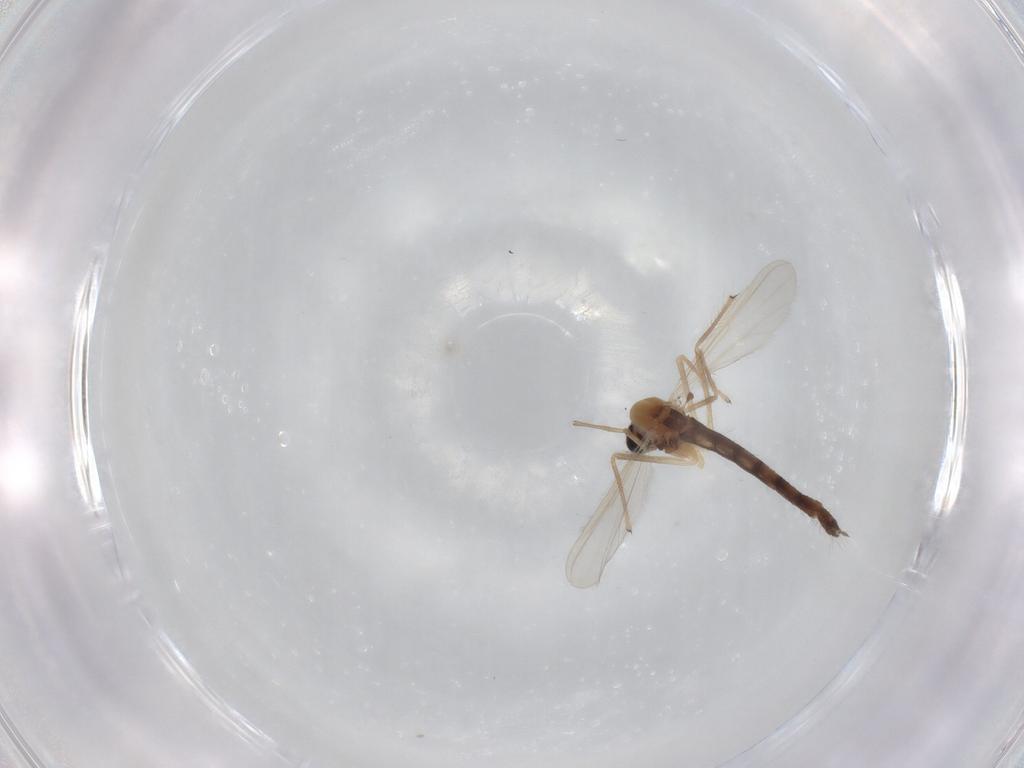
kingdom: Animalia
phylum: Arthropoda
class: Insecta
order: Diptera
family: Chironomidae
